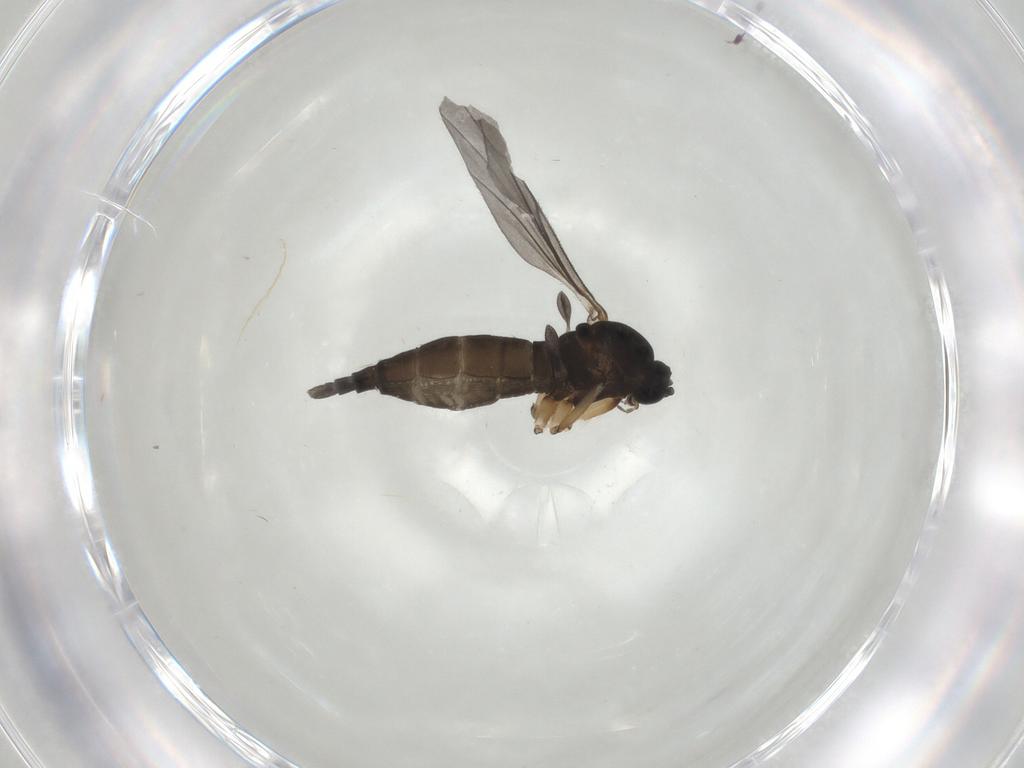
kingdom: Animalia
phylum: Arthropoda
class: Insecta
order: Diptera
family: Sciaridae
